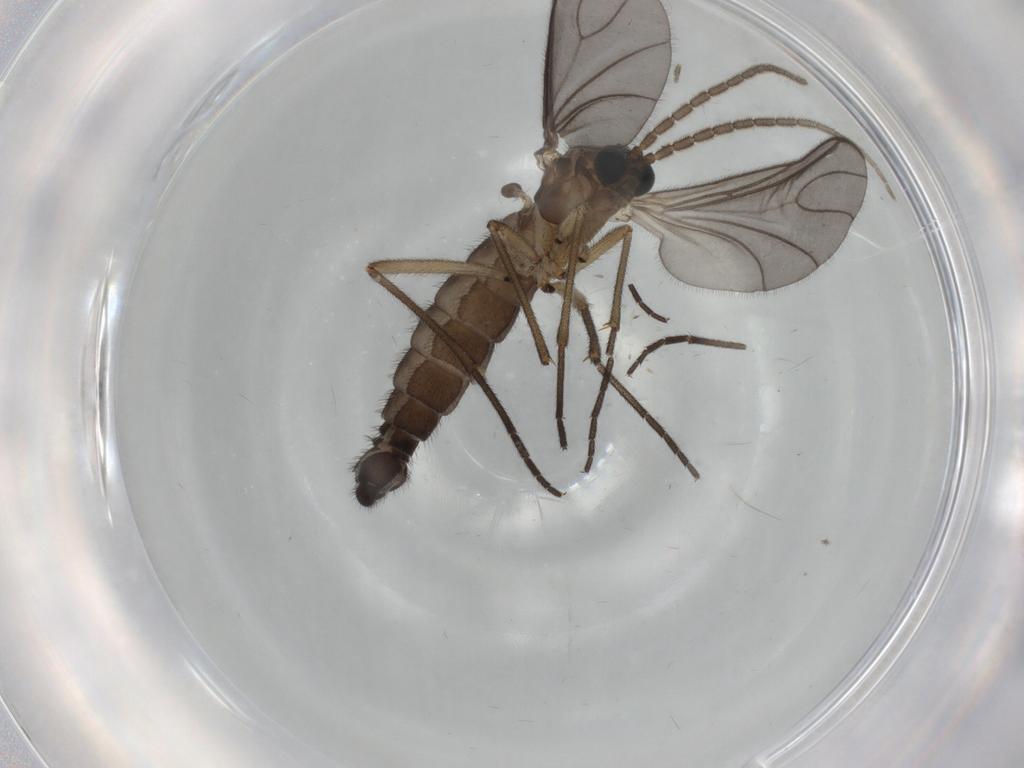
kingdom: Animalia
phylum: Arthropoda
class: Insecta
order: Diptera
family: Sciaridae
